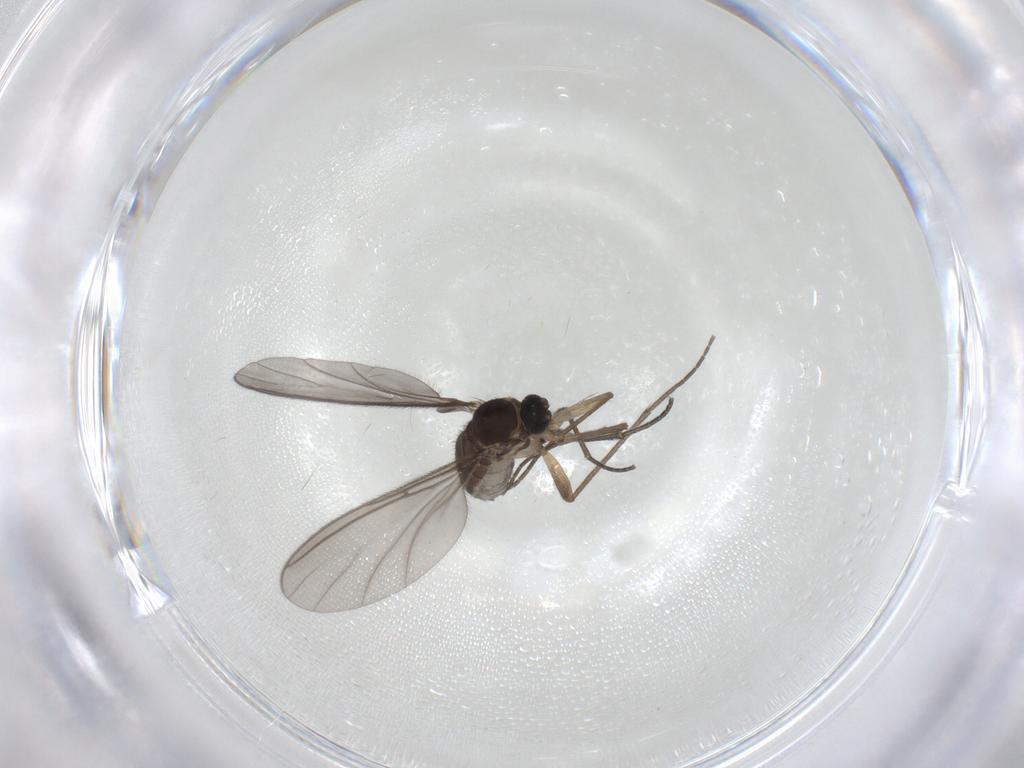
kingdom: Animalia
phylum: Arthropoda
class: Insecta
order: Diptera
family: Sciaridae
